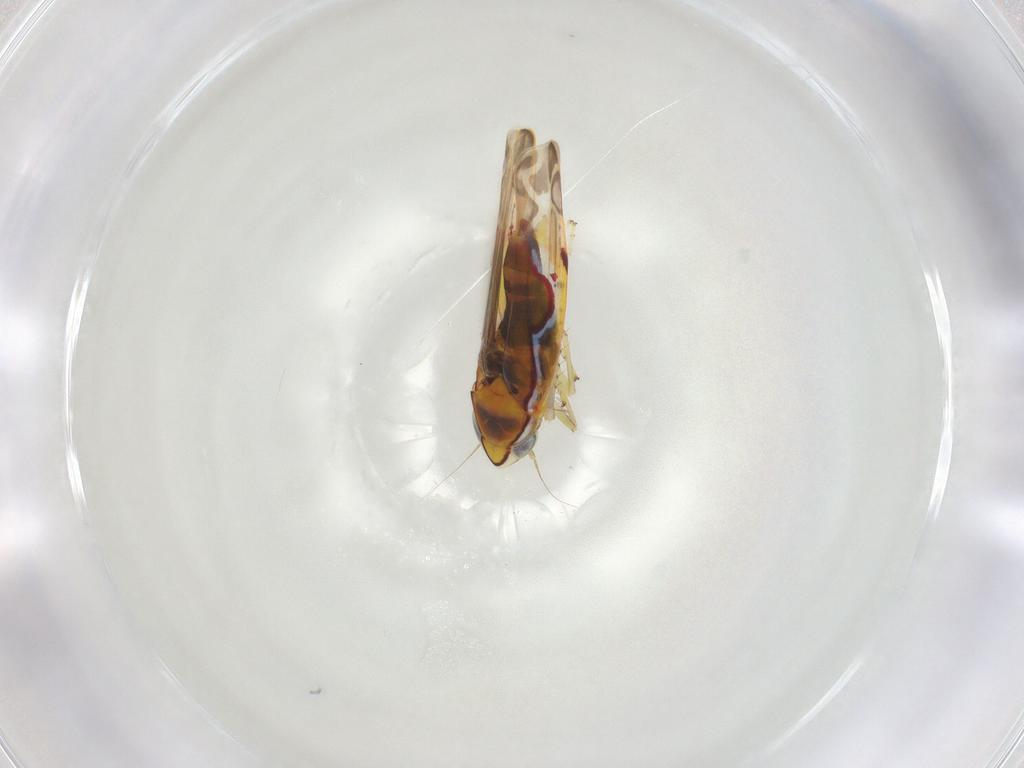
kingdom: Animalia
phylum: Arthropoda
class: Insecta
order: Hemiptera
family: Cicadellidae
